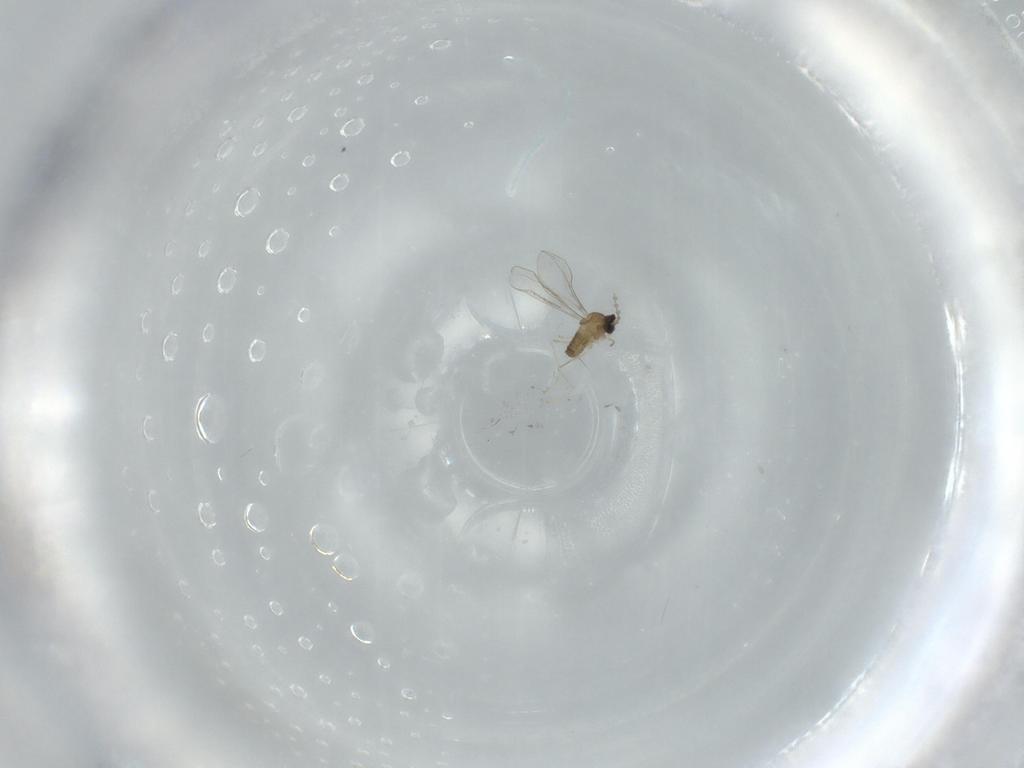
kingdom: Animalia
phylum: Arthropoda
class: Insecta
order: Diptera
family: Cecidomyiidae
